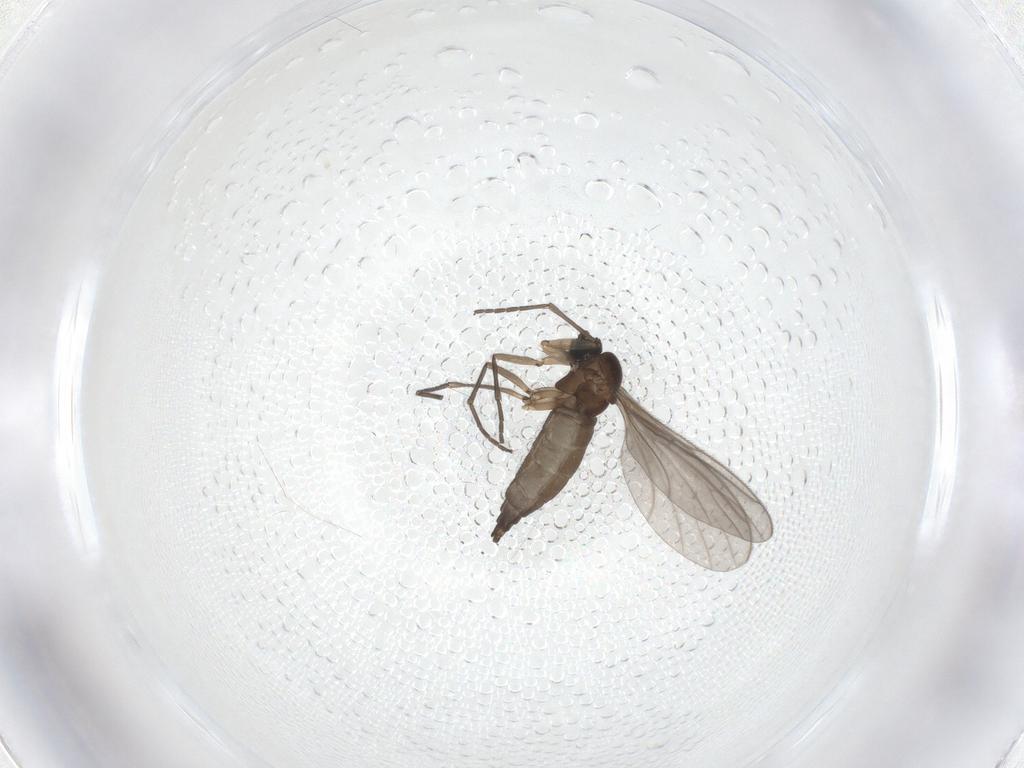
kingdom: Animalia
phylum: Arthropoda
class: Insecta
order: Diptera
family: Sciaridae
